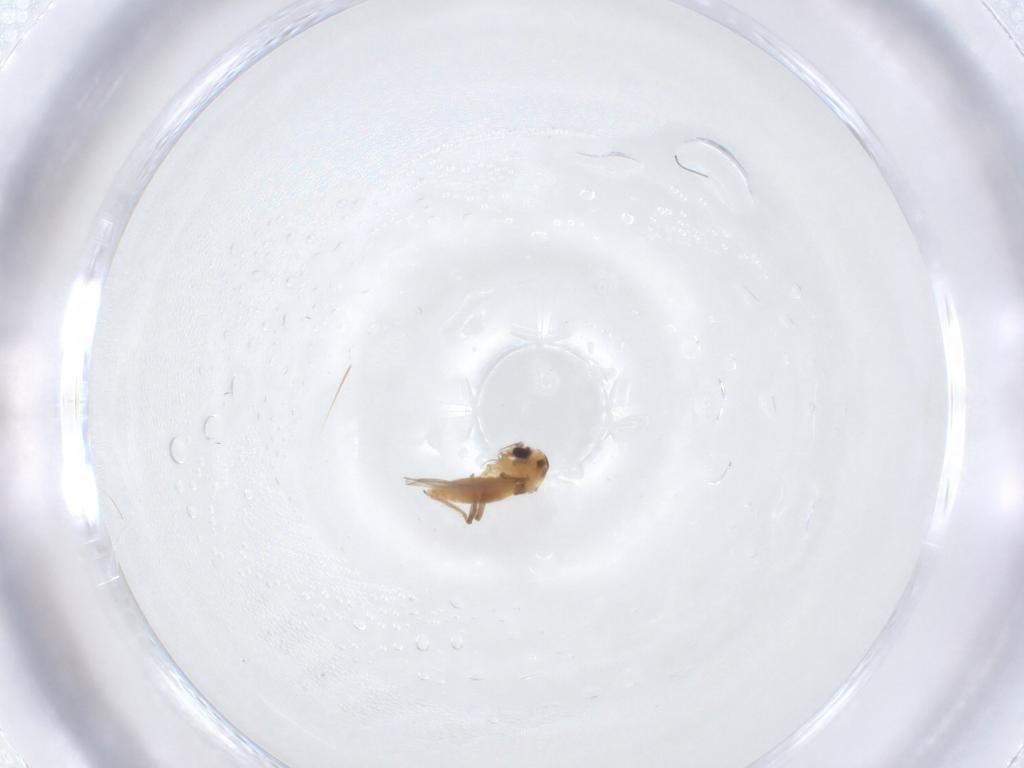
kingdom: Animalia
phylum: Arthropoda
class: Insecta
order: Diptera
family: Chironomidae
